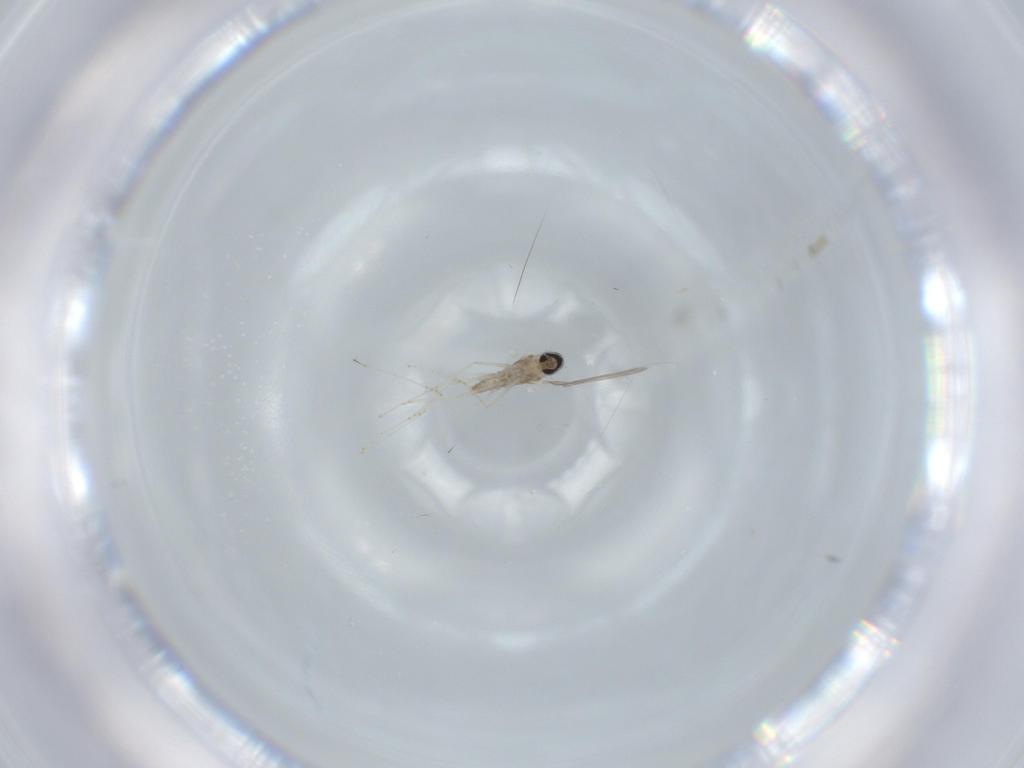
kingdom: Animalia
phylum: Arthropoda
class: Insecta
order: Diptera
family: Cecidomyiidae
